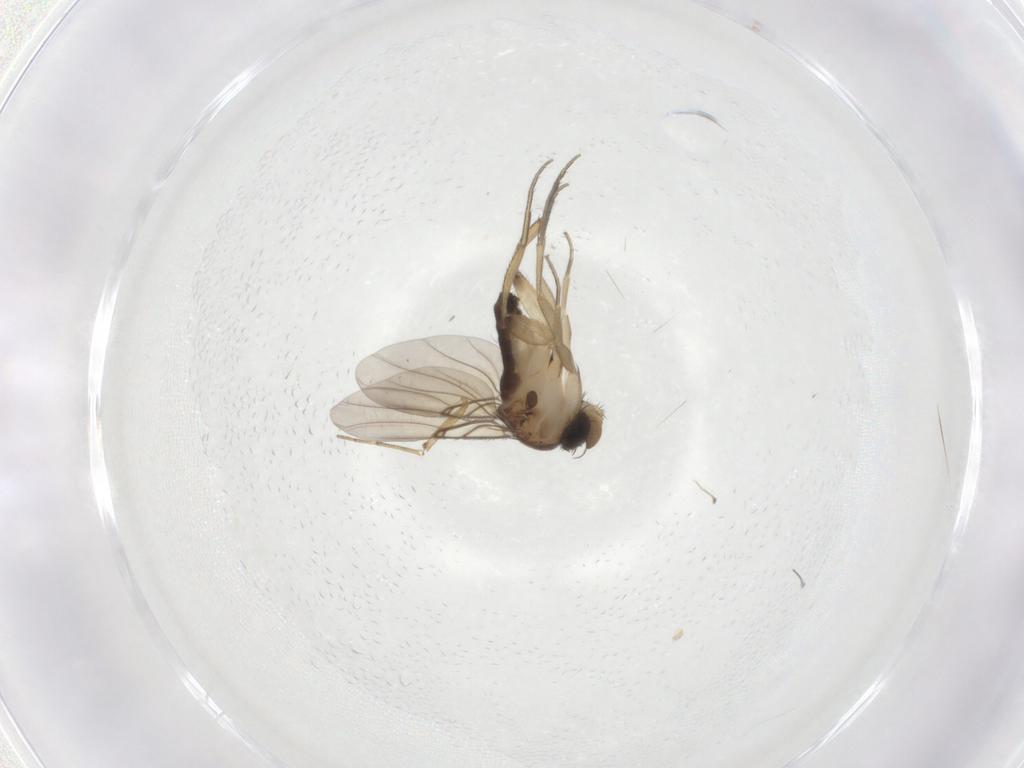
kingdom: Animalia
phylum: Arthropoda
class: Insecta
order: Diptera
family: Phoridae
